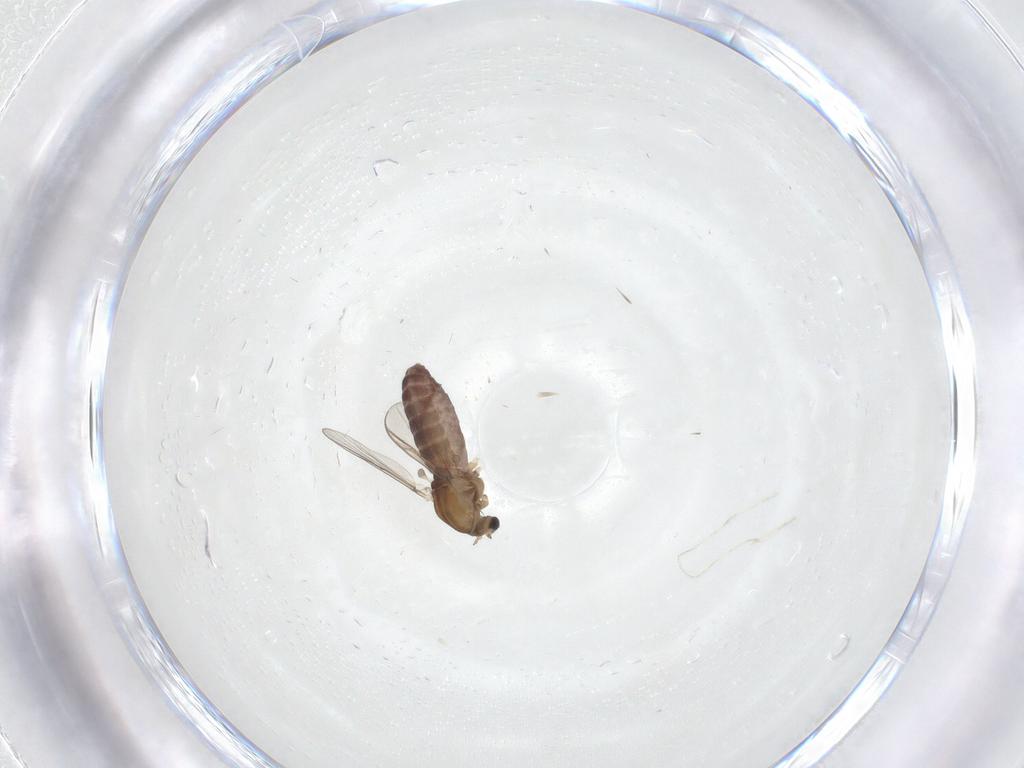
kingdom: Animalia
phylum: Arthropoda
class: Insecta
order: Diptera
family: Chironomidae
